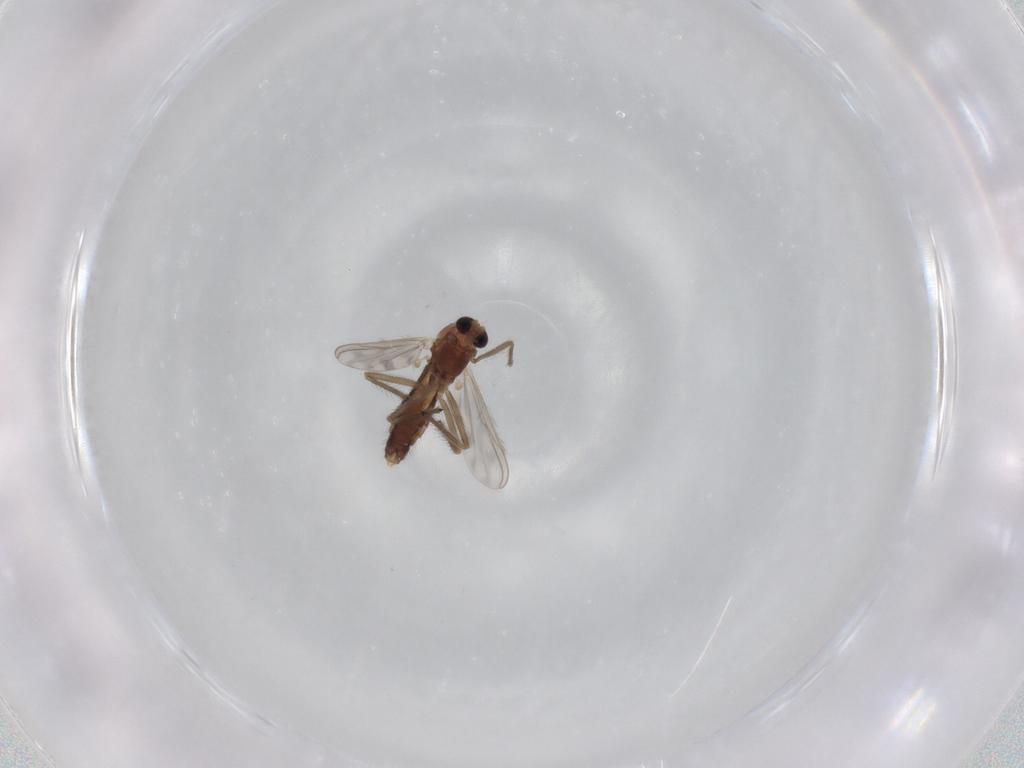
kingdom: Animalia
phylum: Arthropoda
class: Insecta
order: Diptera
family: Chironomidae
